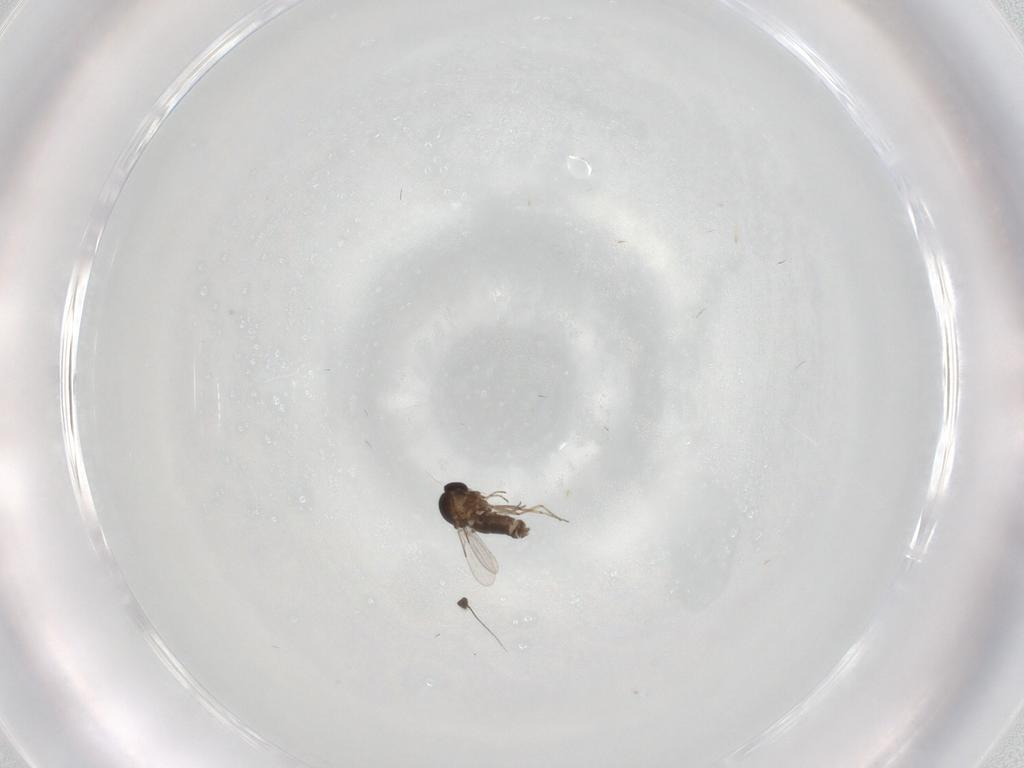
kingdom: Animalia
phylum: Arthropoda
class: Insecta
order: Diptera
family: Ceratopogonidae
